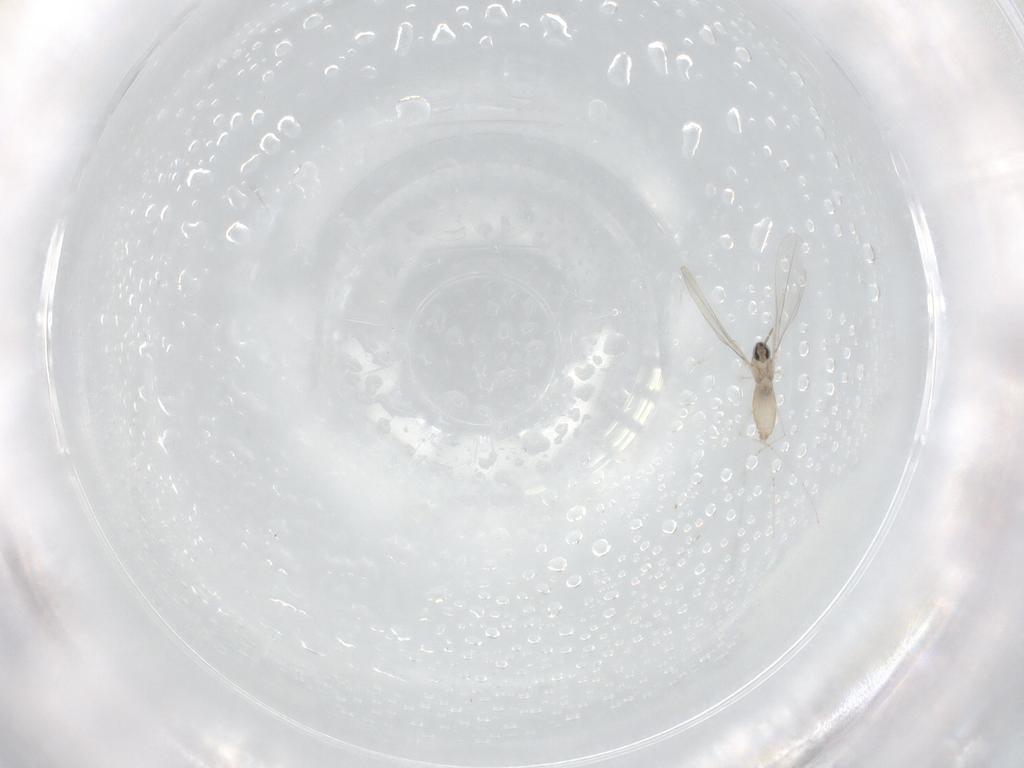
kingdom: Animalia
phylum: Arthropoda
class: Insecta
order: Diptera
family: Sciaridae
